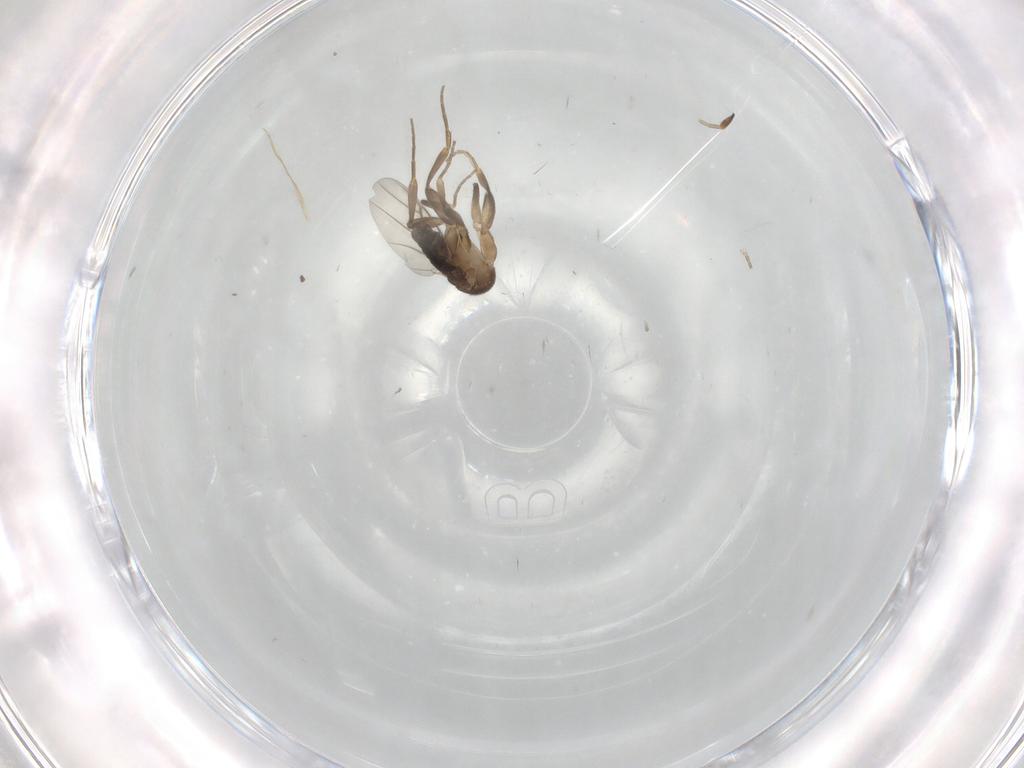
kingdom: Animalia
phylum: Arthropoda
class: Insecta
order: Diptera
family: Phoridae
